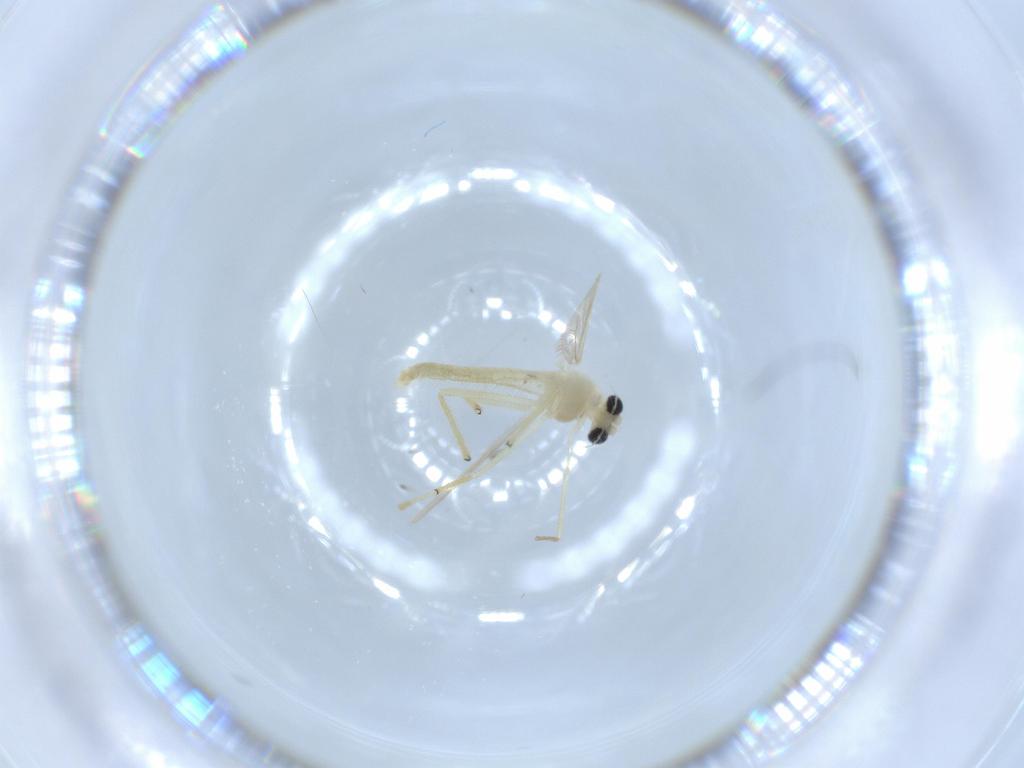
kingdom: Animalia
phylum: Arthropoda
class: Insecta
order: Diptera
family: Chironomidae
